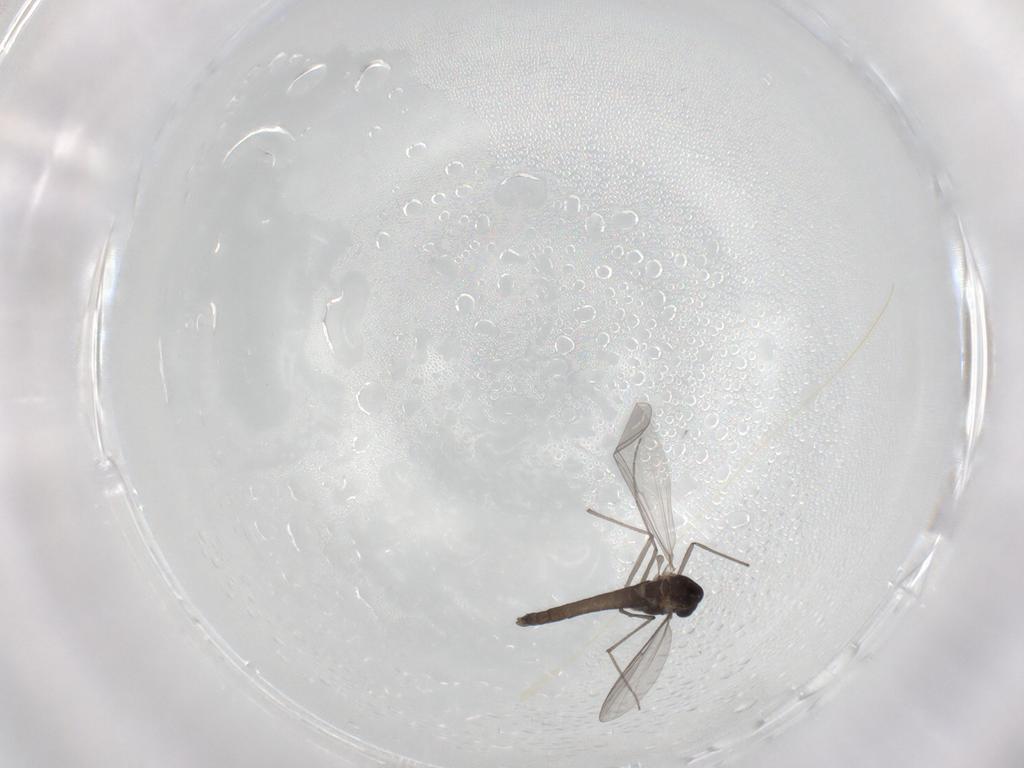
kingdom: Animalia
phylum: Arthropoda
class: Insecta
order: Diptera
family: Chironomidae
